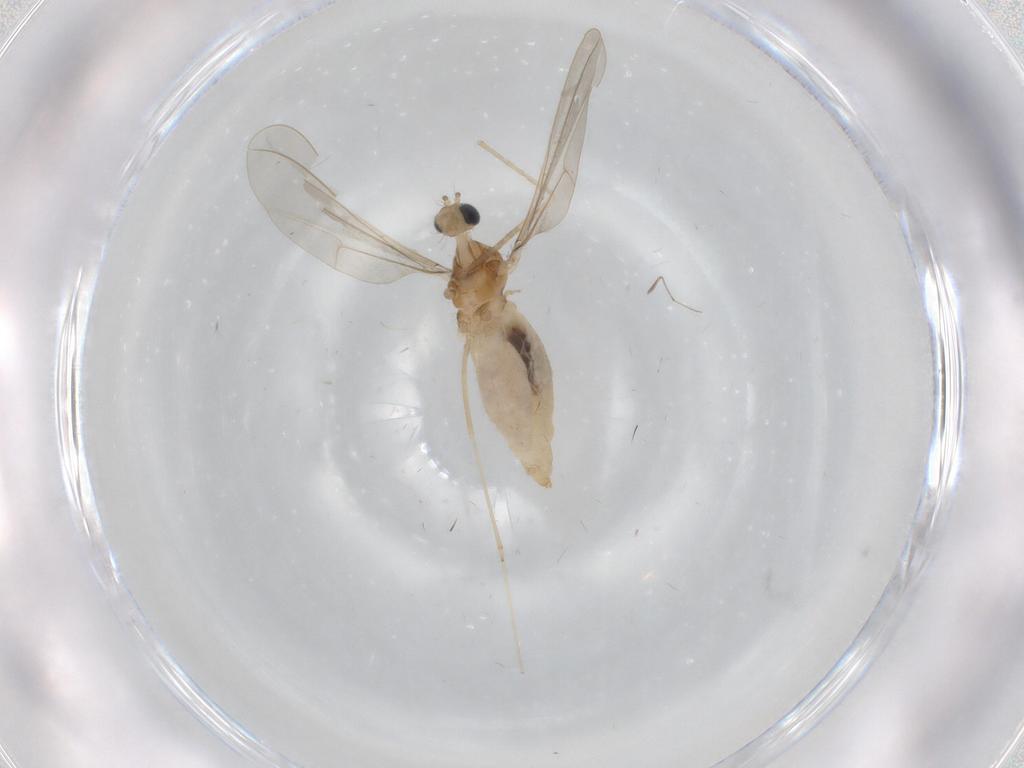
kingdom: Animalia
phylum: Arthropoda
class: Insecta
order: Diptera
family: Cecidomyiidae
